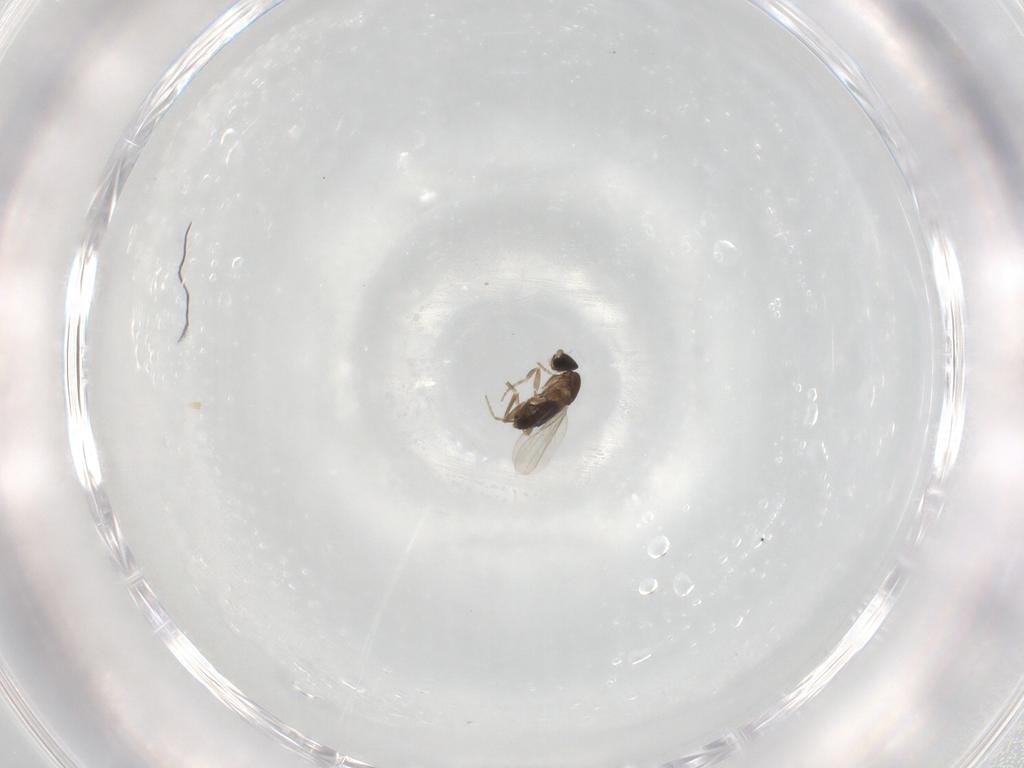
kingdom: Animalia
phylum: Arthropoda
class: Insecta
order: Diptera
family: Phoridae
